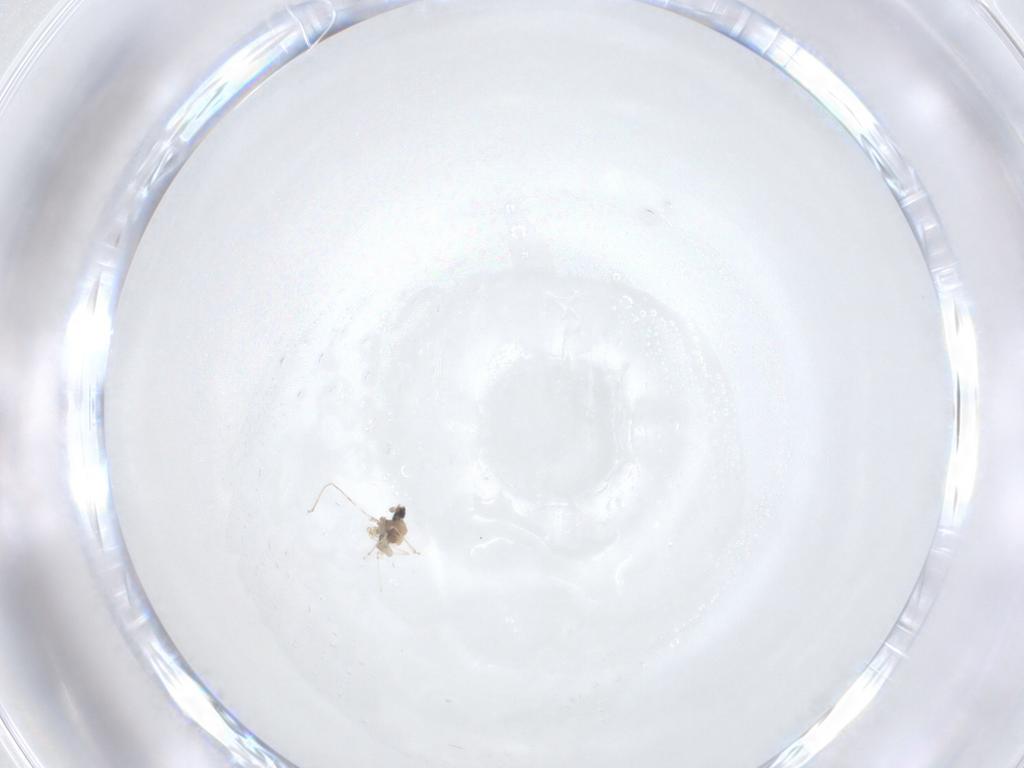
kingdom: Animalia
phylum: Arthropoda
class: Insecta
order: Diptera
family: Cecidomyiidae
